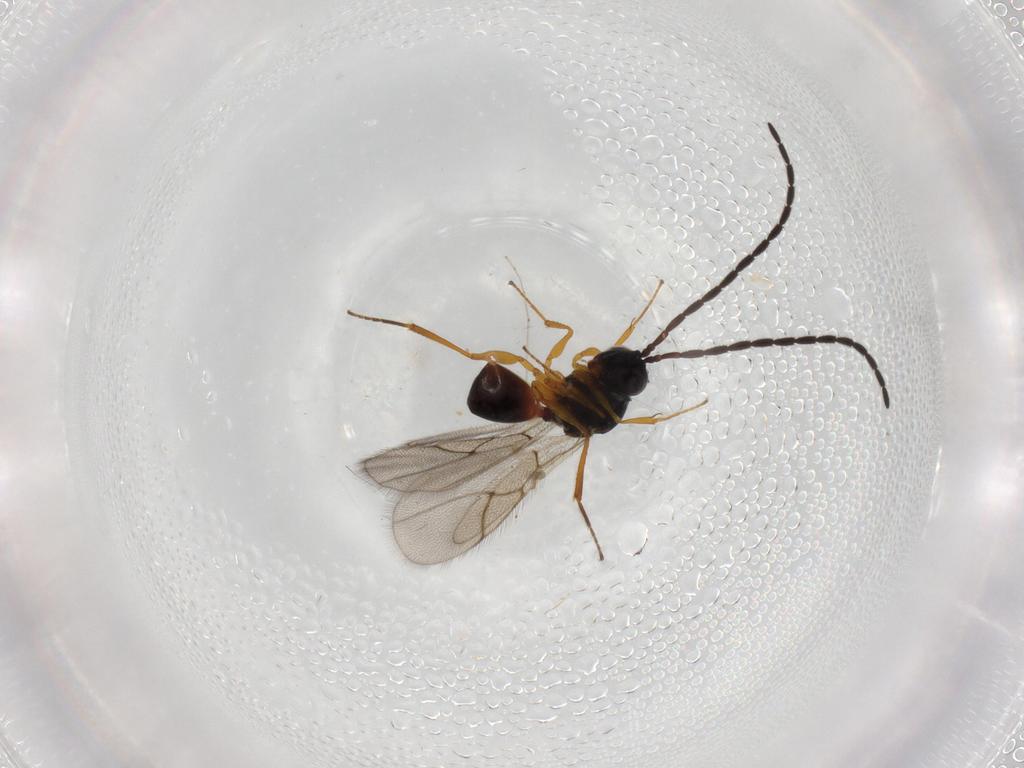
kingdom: Animalia
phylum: Arthropoda
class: Insecta
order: Hymenoptera
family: Figitidae
